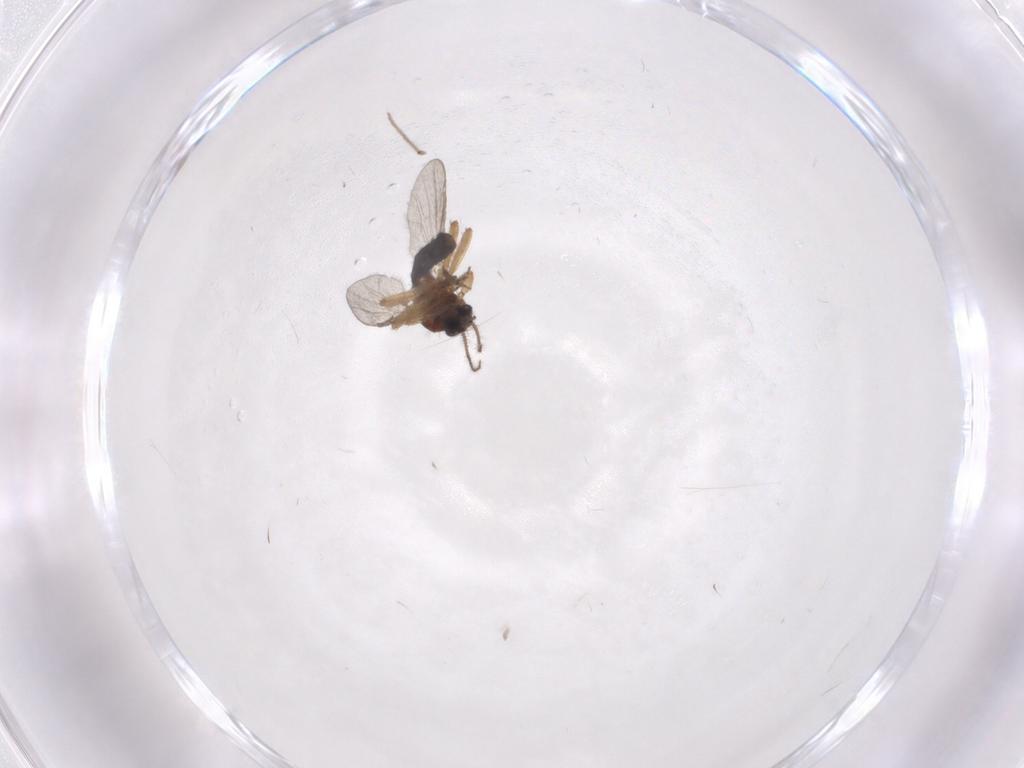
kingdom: Animalia
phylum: Arthropoda
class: Insecta
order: Diptera
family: Ceratopogonidae
